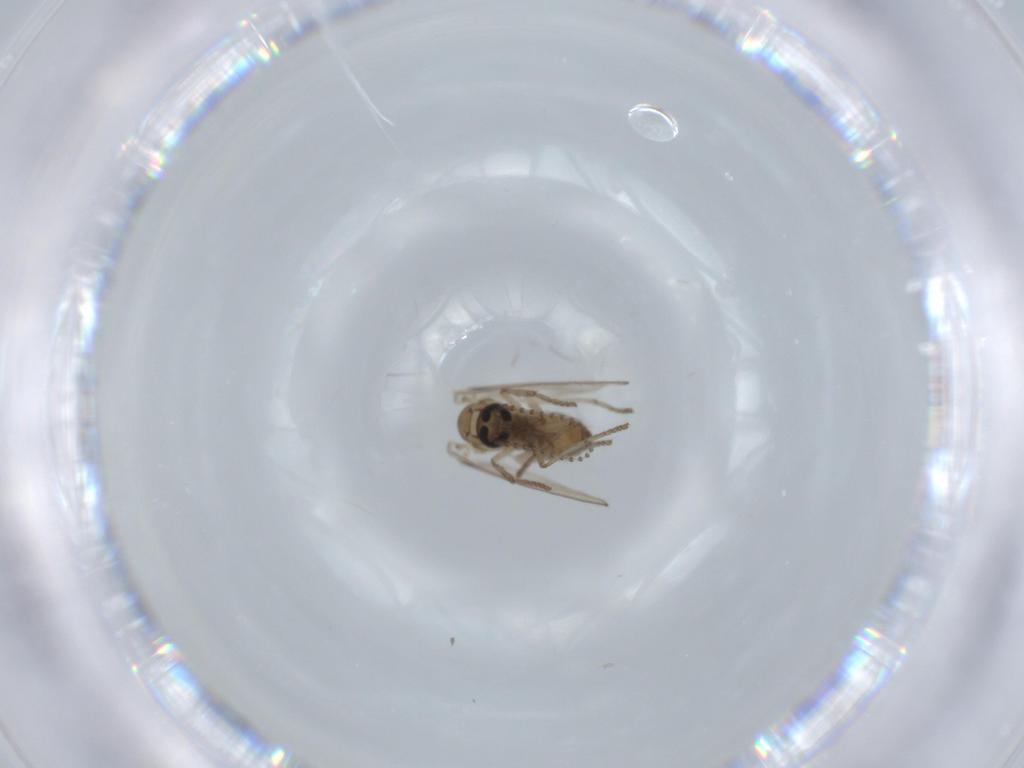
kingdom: Animalia
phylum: Arthropoda
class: Insecta
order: Diptera
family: Psychodidae
